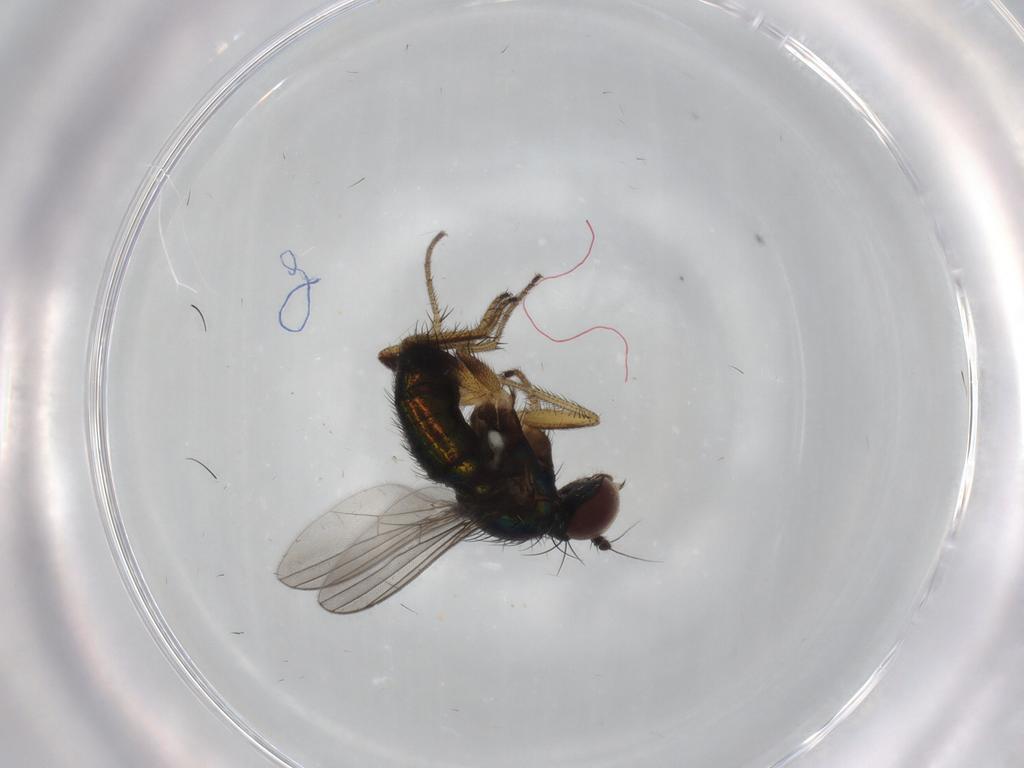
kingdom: Animalia
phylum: Arthropoda
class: Insecta
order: Diptera
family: Dolichopodidae
